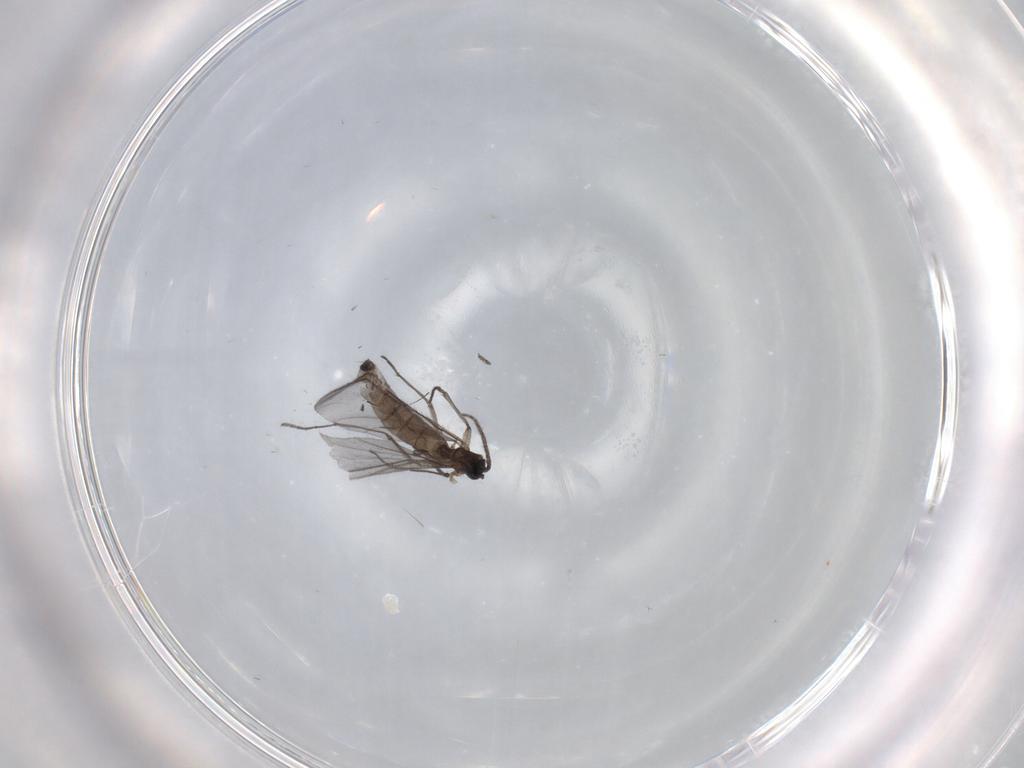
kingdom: Animalia
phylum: Arthropoda
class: Insecta
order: Diptera
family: Sciaridae
